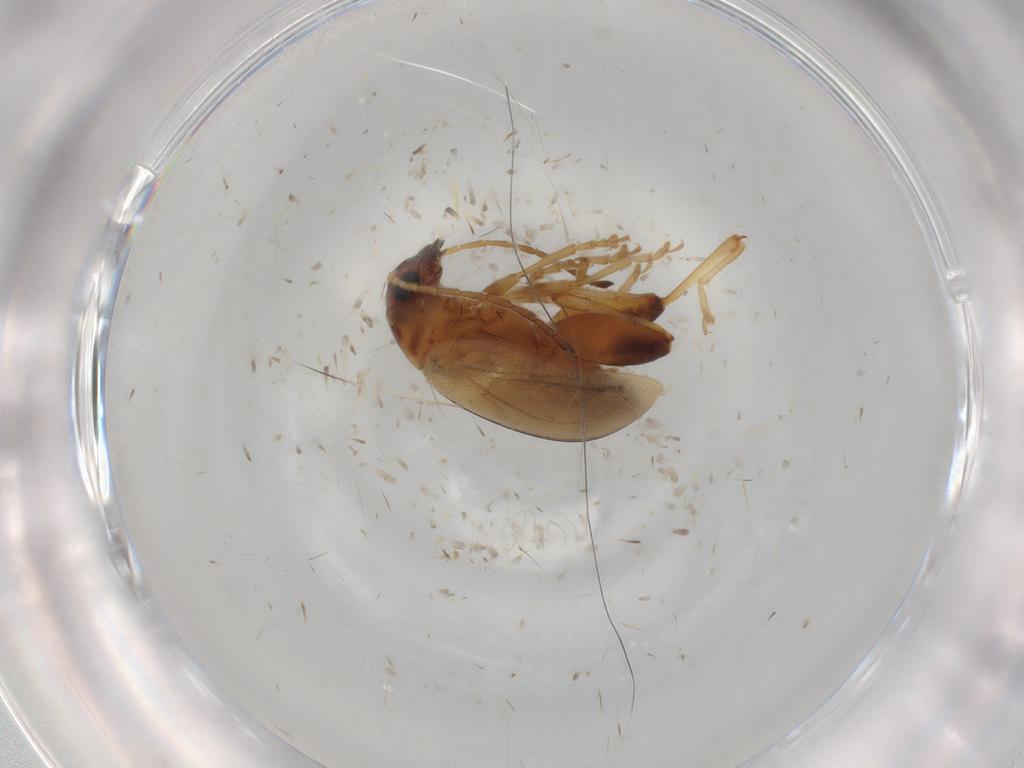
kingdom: Animalia
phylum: Arthropoda
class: Insecta
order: Coleoptera
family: Chrysomelidae
